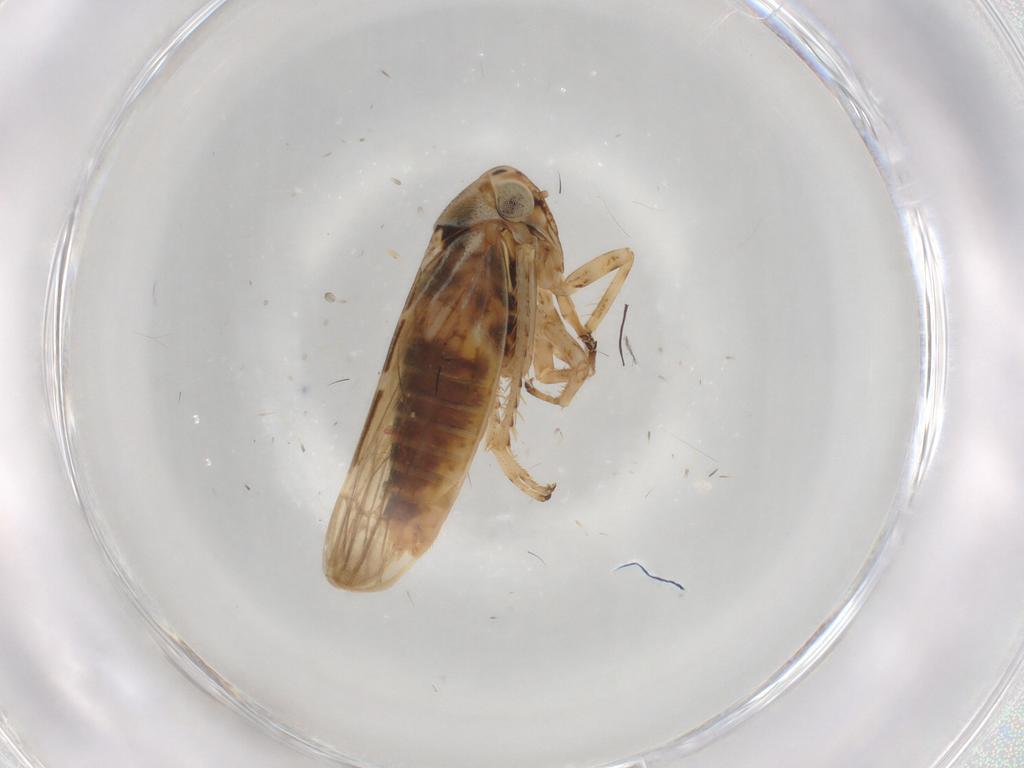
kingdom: Animalia
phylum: Arthropoda
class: Insecta
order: Hemiptera
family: Cicadellidae
